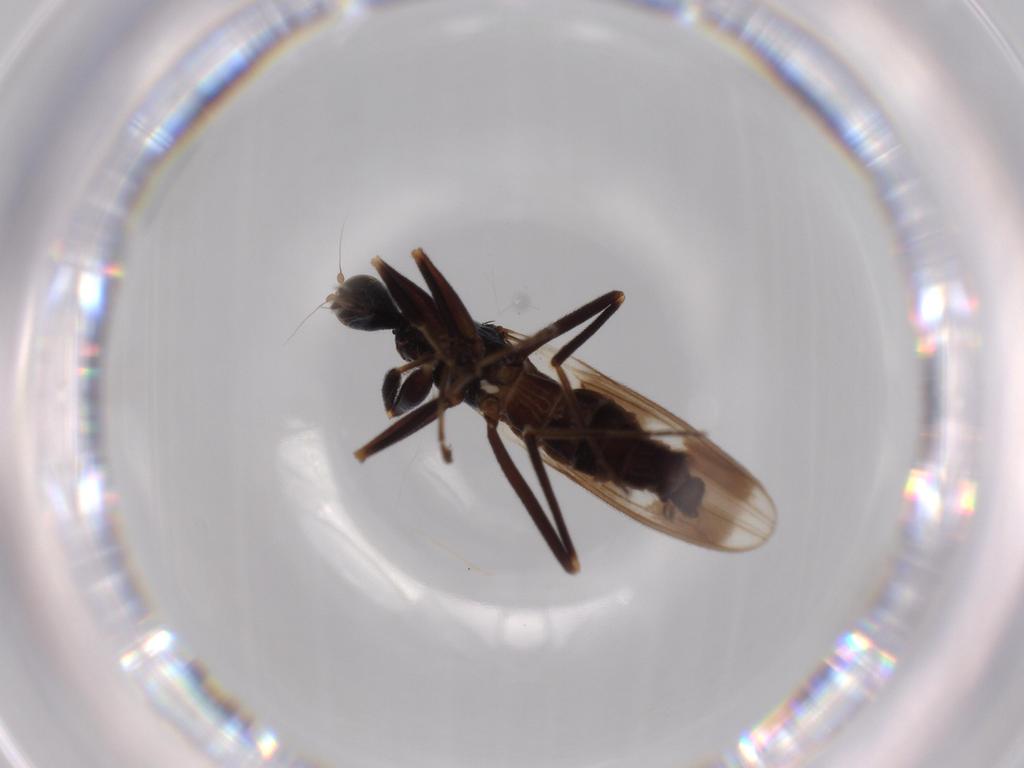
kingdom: Animalia
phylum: Arthropoda
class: Insecta
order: Diptera
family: Hybotidae
